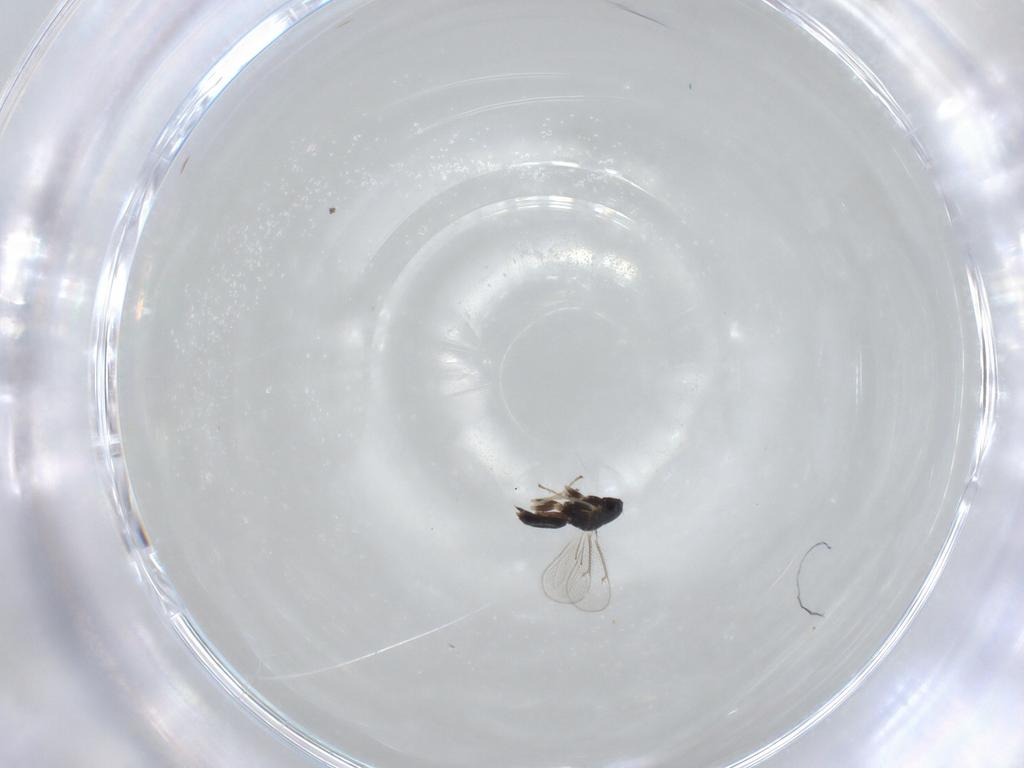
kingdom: Animalia
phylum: Arthropoda
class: Insecta
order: Hymenoptera
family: Eulophidae
